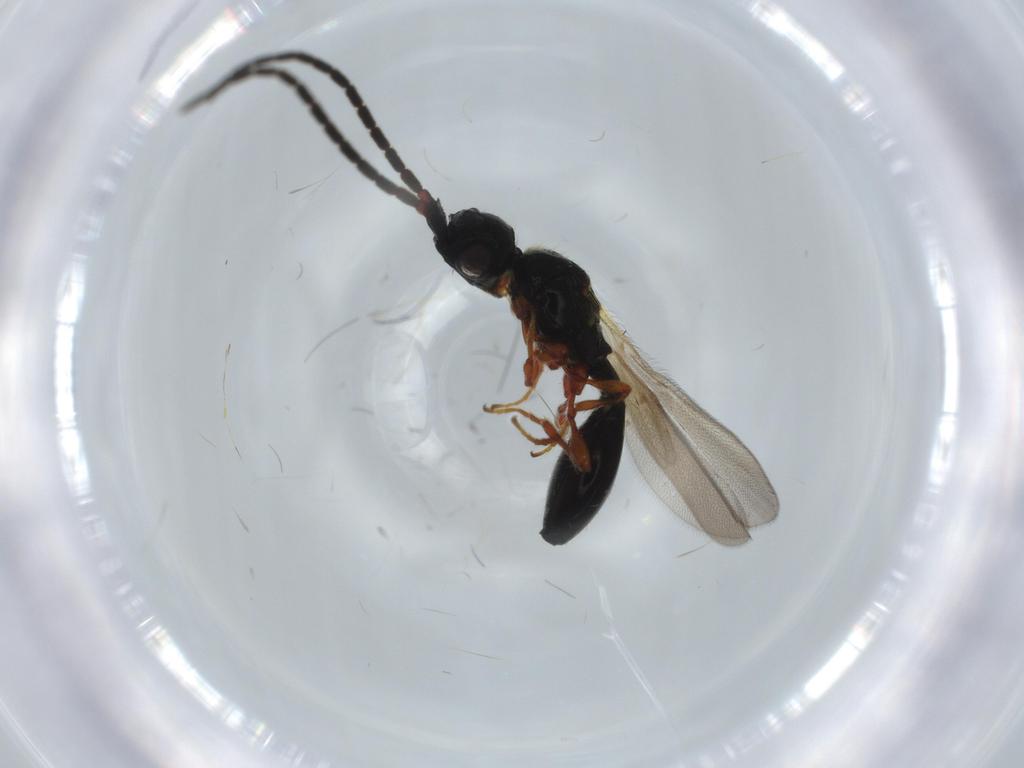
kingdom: Animalia
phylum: Arthropoda
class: Insecta
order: Hymenoptera
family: Diapriidae
